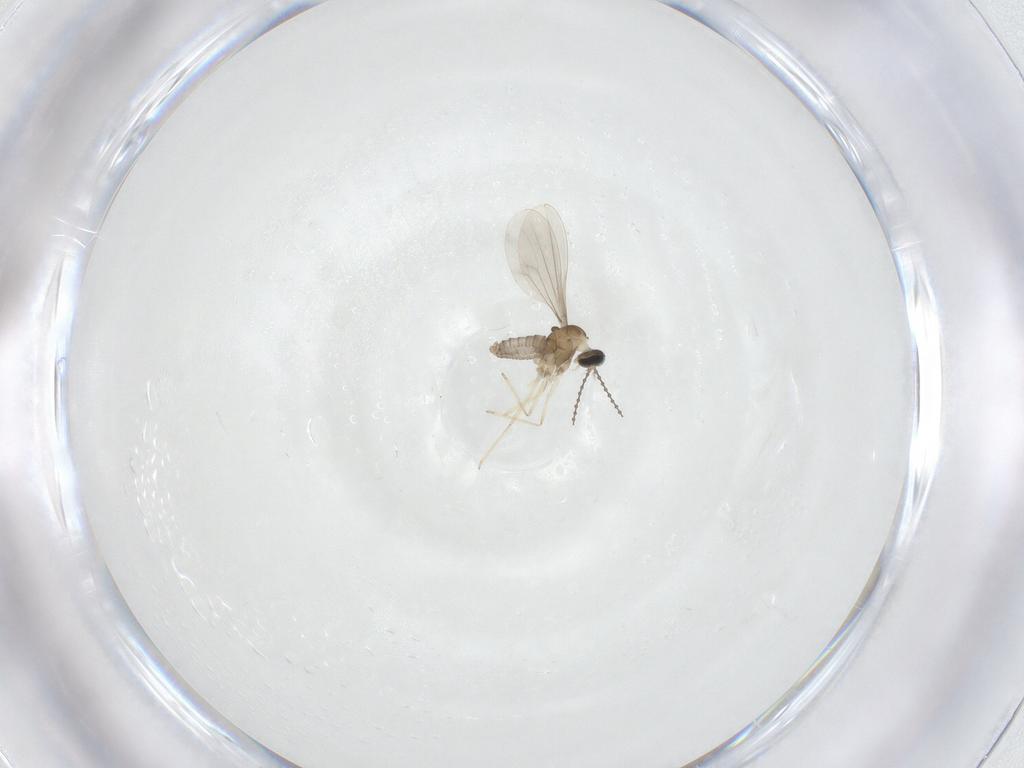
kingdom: Animalia
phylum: Arthropoda
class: Insecta
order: Diptera
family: Cecidomyiidae
